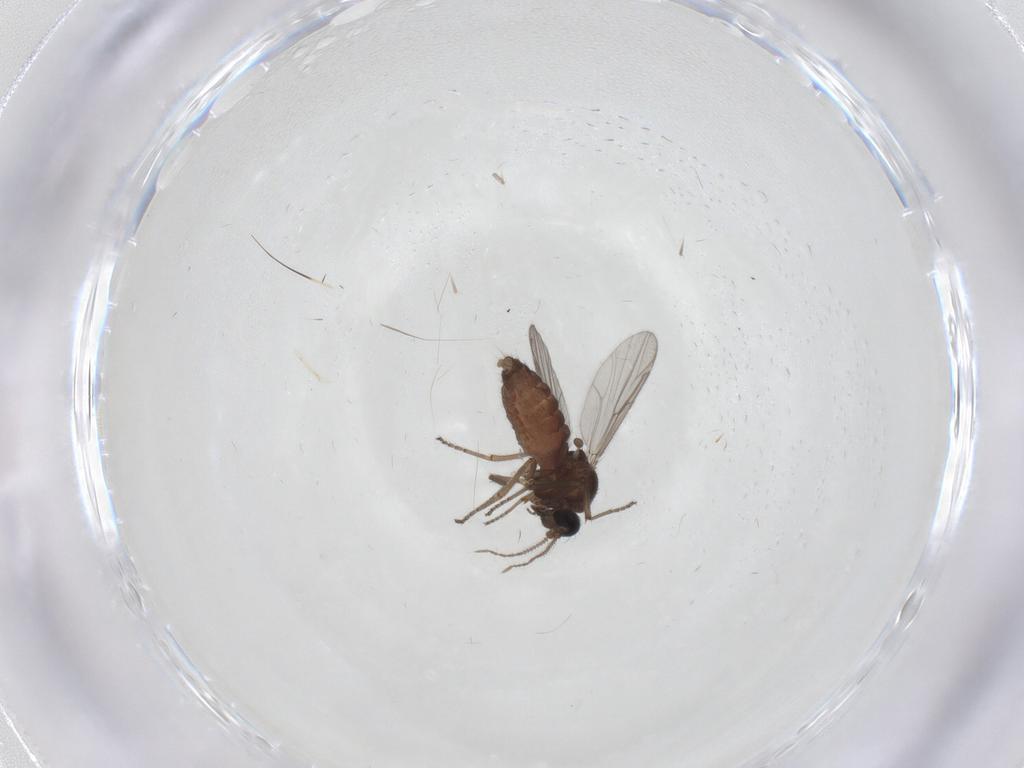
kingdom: Animalia
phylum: Arthropoda
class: Insecta
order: Diptera
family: Ceratopogonidae
